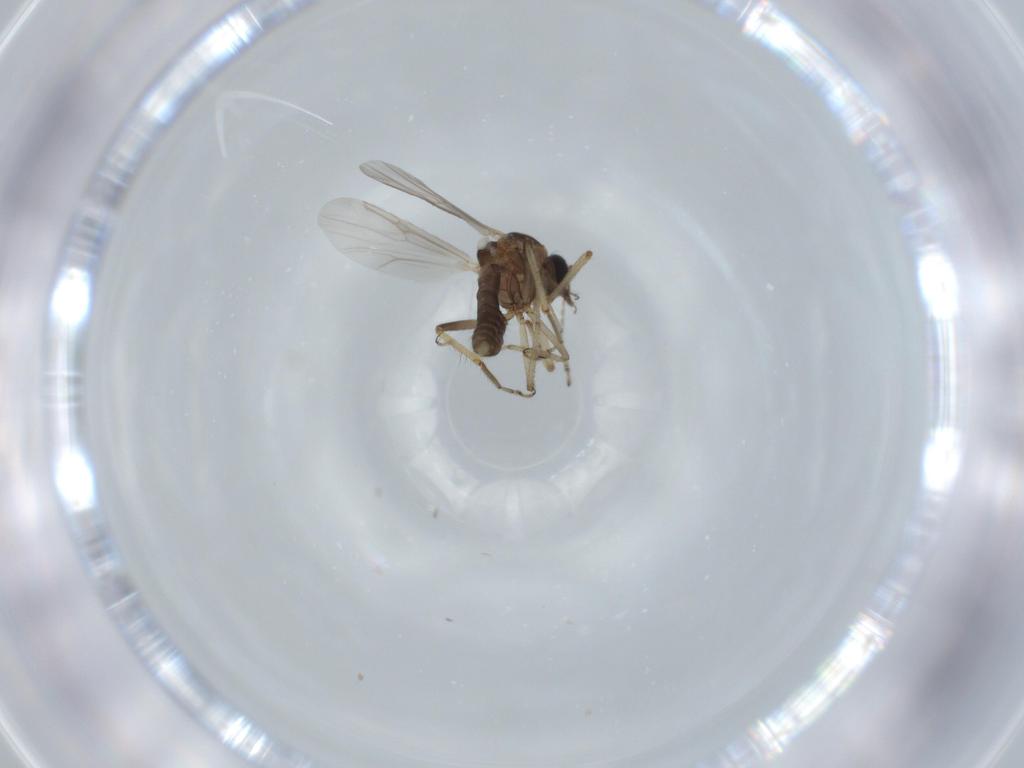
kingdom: Animalia
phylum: Arthropoda
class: Insecta
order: Diptera
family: Ceratopogonidae
